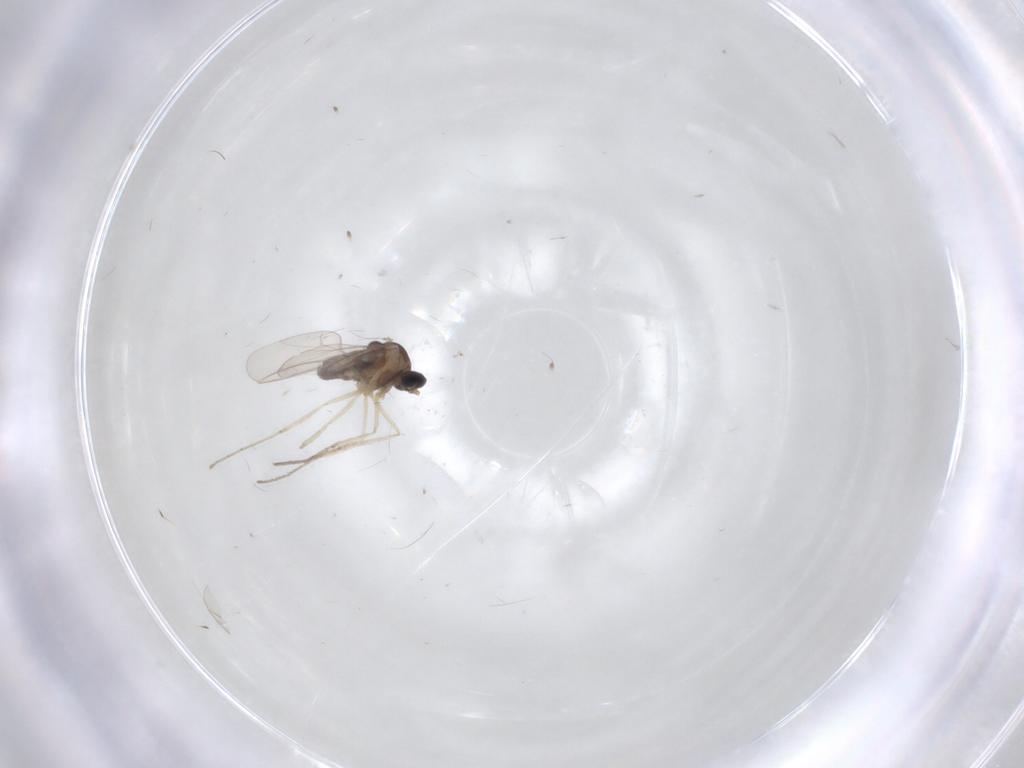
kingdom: Animalia
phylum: Arthropoda
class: Insecta
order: Diptera
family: Cecidomyiidae
